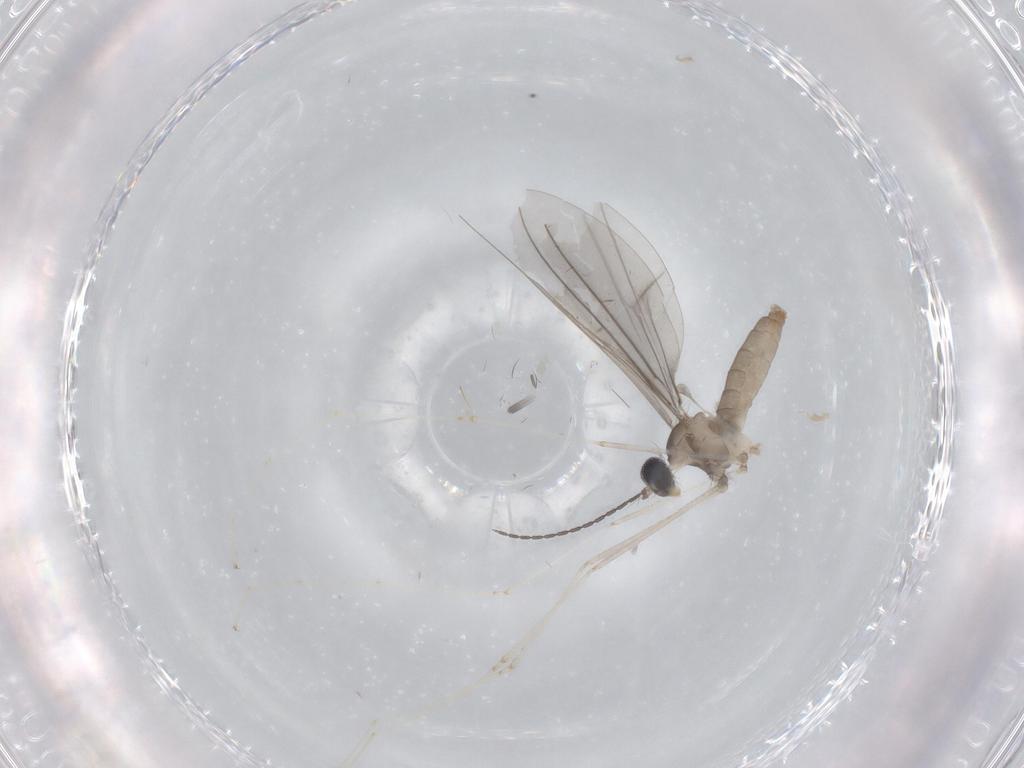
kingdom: Animalia
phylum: Arthropoda
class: Insecta
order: Diptera
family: Cecidomyiidae
